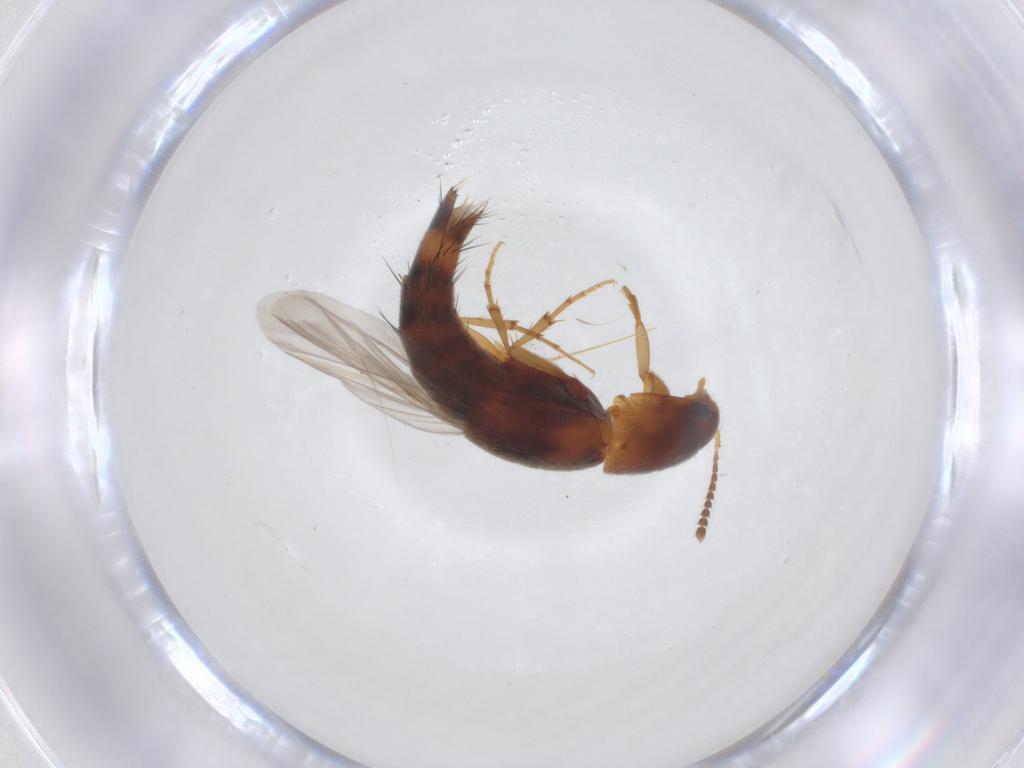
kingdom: Animalia
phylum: Arthropoda
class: Insecta
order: Coleoptera
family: Staphylinidae
